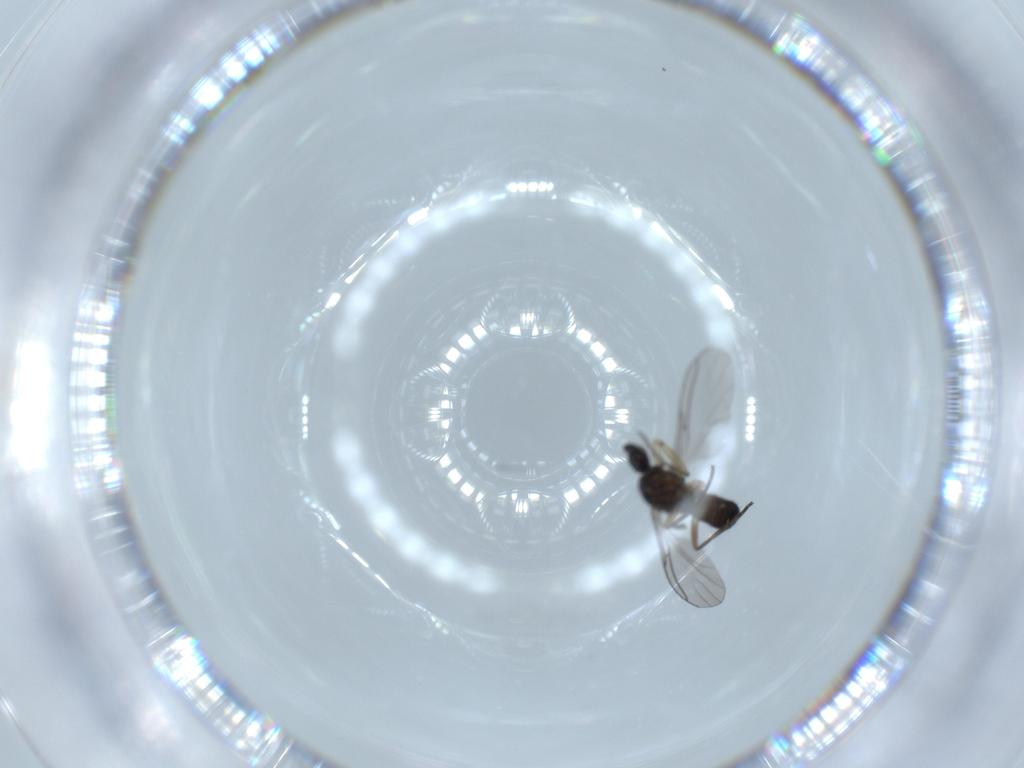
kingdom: Animalia
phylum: Arthropoda
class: Insecta
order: Diptera
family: Sciaridae
